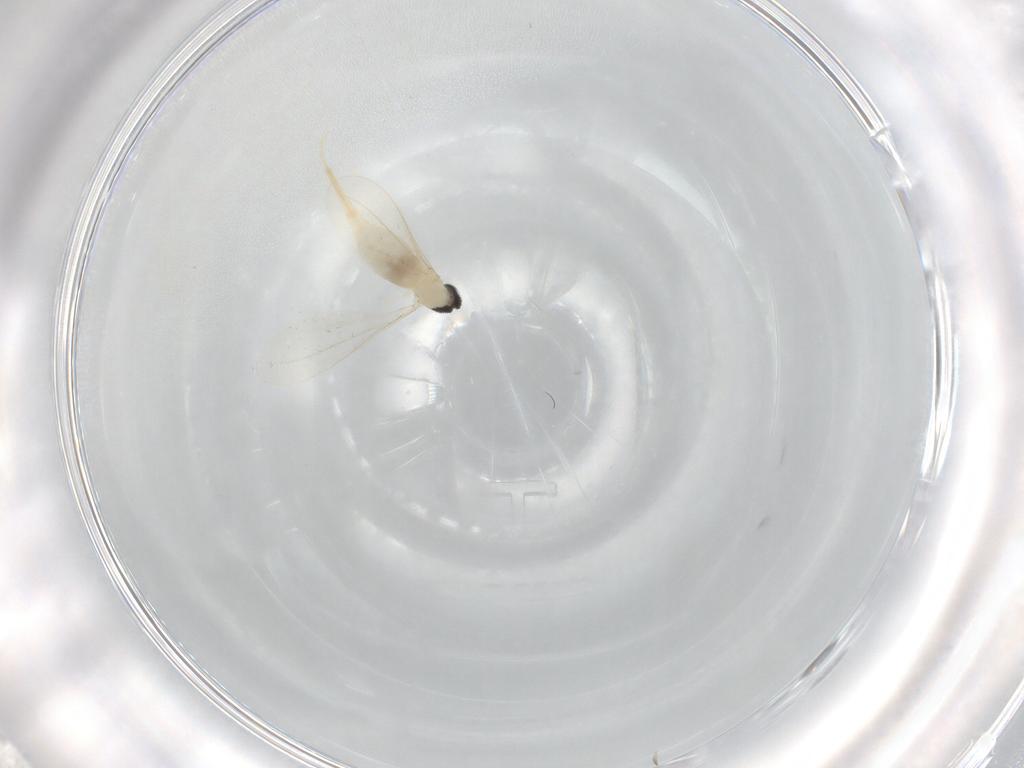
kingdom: Animalia
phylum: Arthropoda
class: Insecta
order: Diptera
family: Cecidomyiidae
